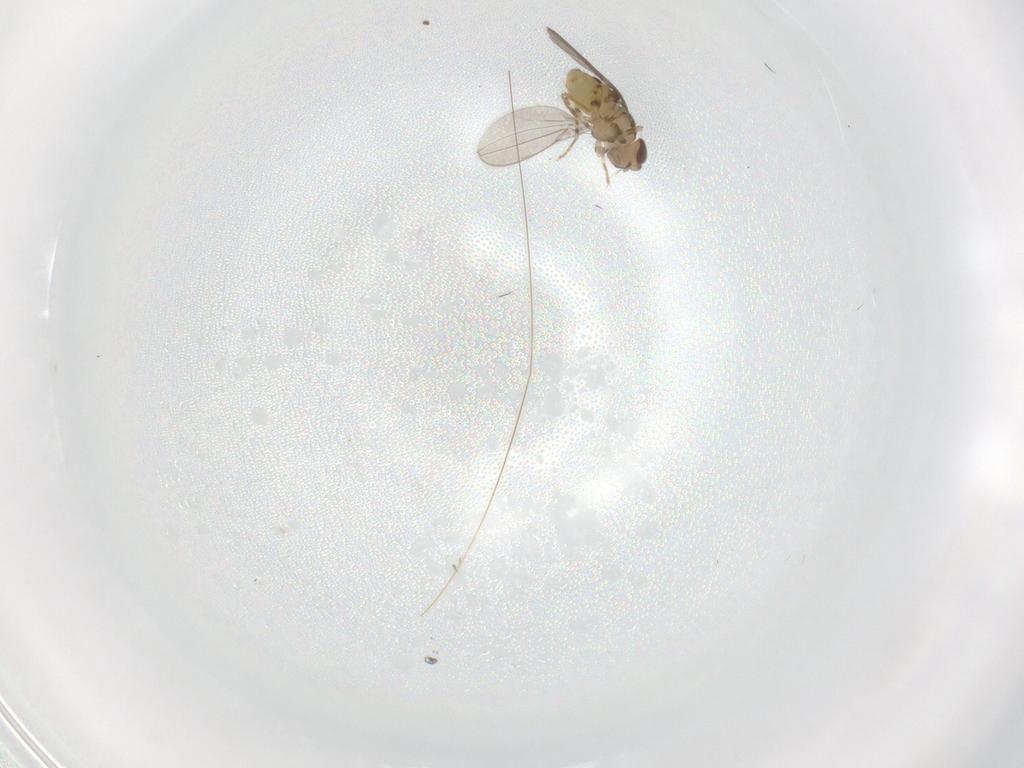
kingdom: Animalia
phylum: Arthropoda
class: Insecta
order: Diptera
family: Asteiidae
